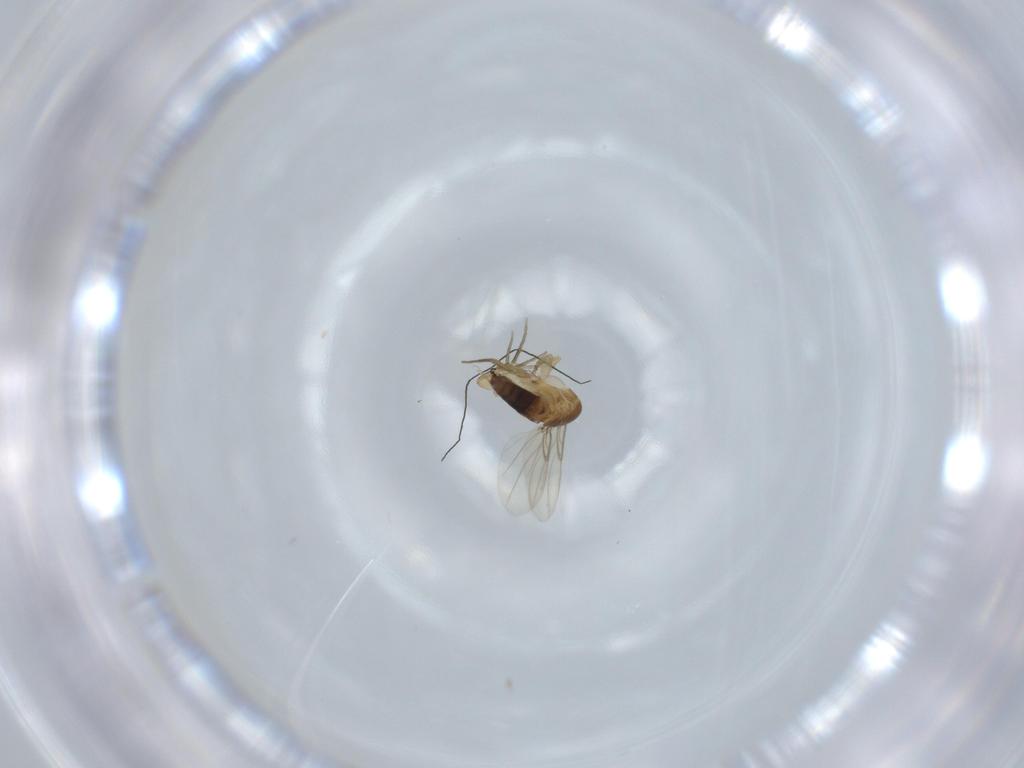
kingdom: Animalia
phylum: Arthropoda
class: Insecta
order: Diptera
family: Phoridae
